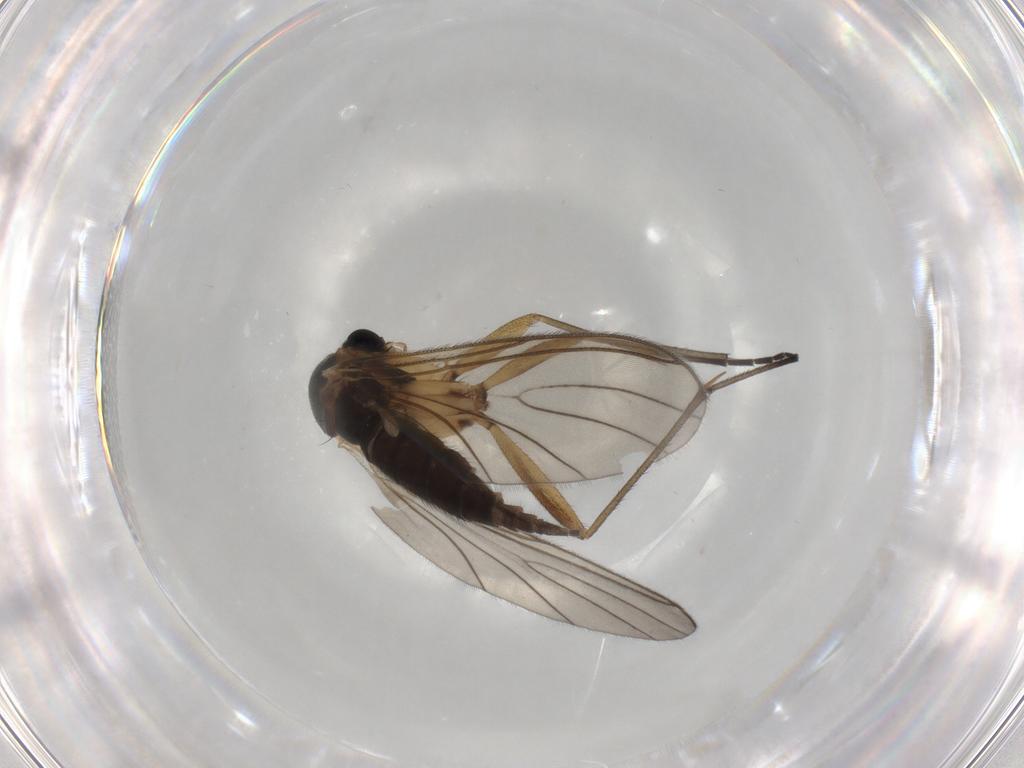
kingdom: Animalia
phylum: Arthropoda
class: Insecta
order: Diptera
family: Sciaridae
